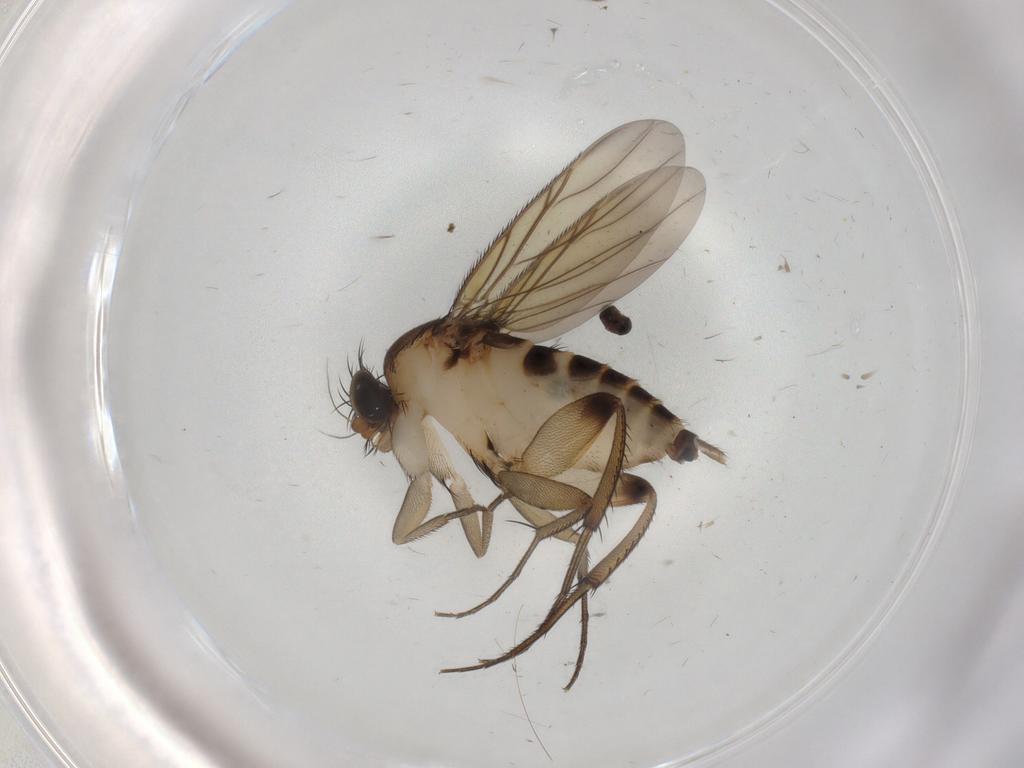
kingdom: Animalia
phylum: Arthropoda
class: Insecta
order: Diptera
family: Phoridae
